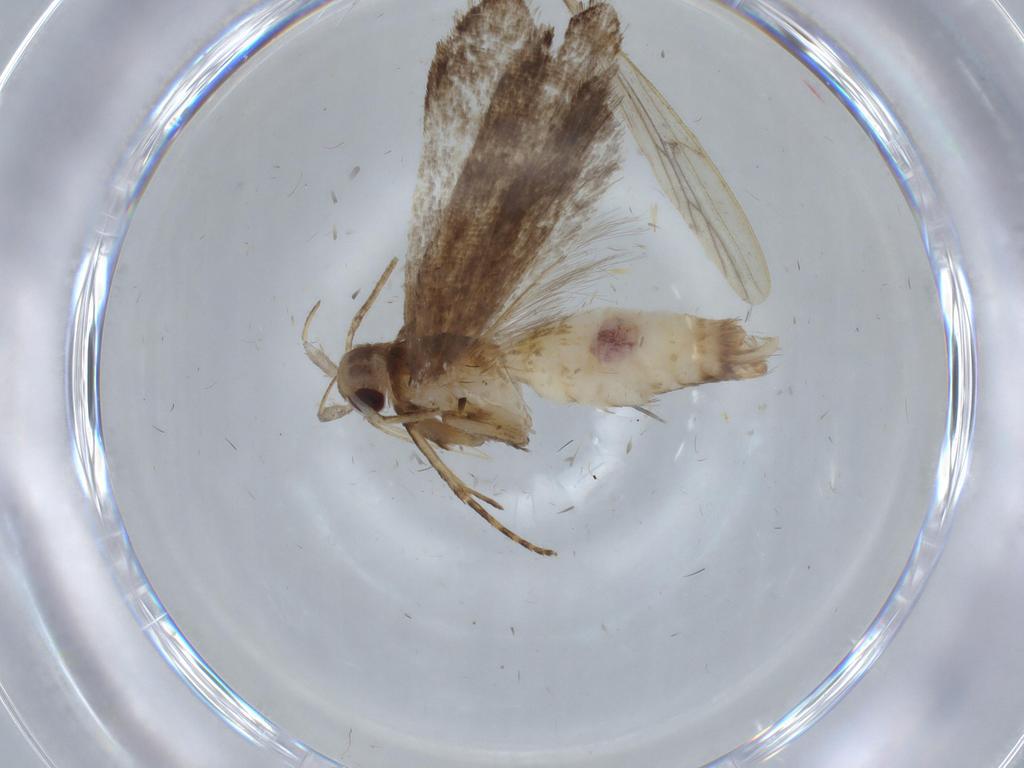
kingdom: Animalia
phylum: Arthropoda
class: Insecta
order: Lepidoptera
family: Gelechiidae
